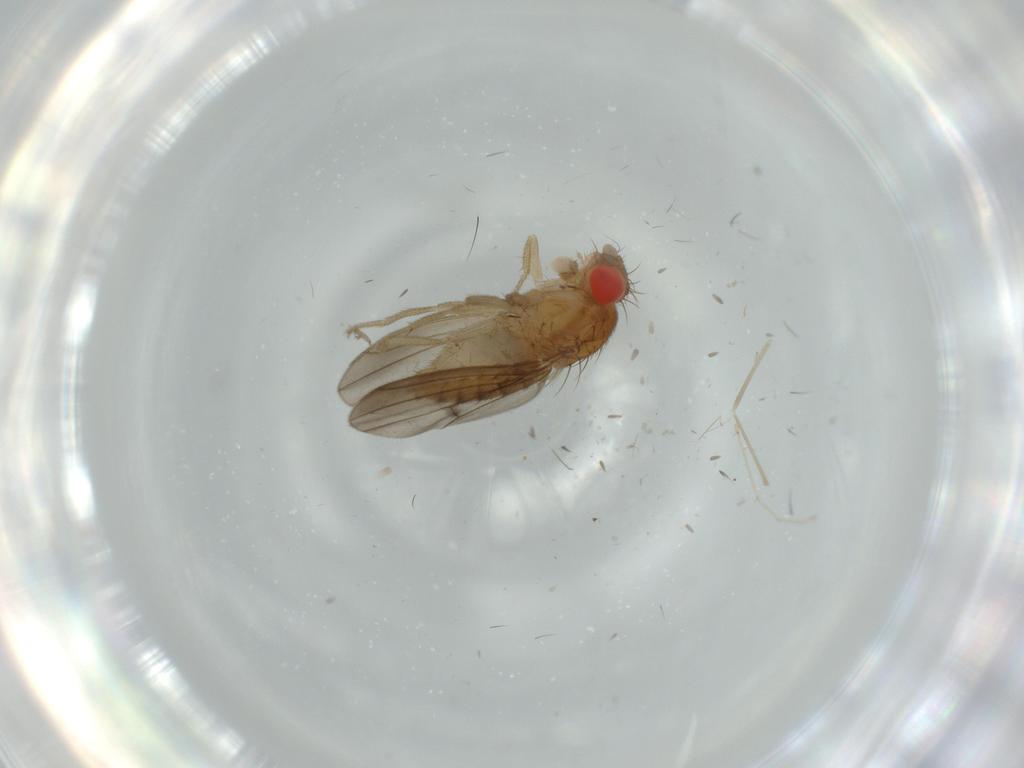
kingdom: Animalia
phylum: Arthropoda
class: Insecta
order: Diptera
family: Drosophilidae
